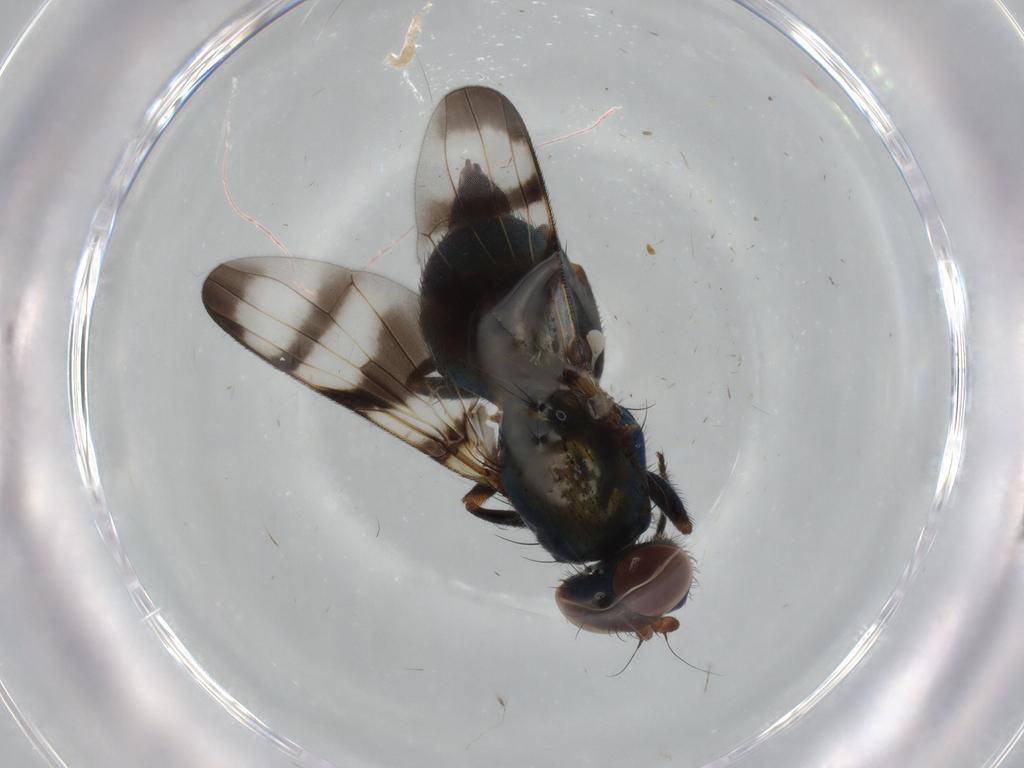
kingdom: Animalia
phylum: Arthropoda
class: Insecta
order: Diptera
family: Ulidiidae
